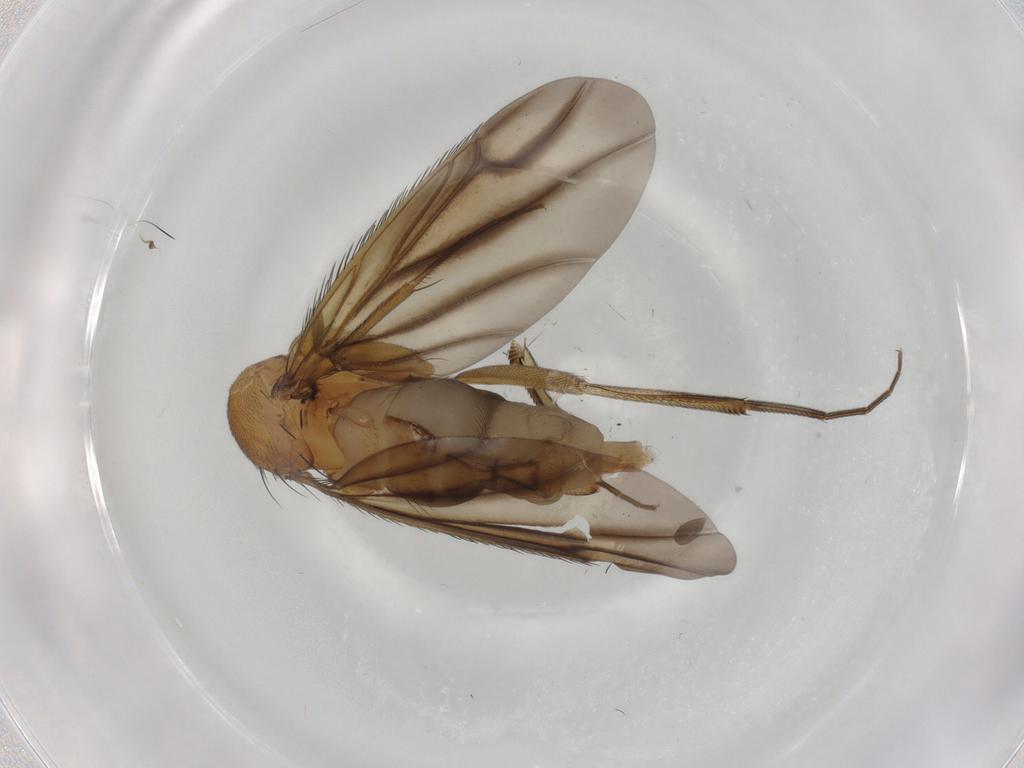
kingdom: Animalia
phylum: Arthropoda
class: Insecta
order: Diptera
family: Phoridae
